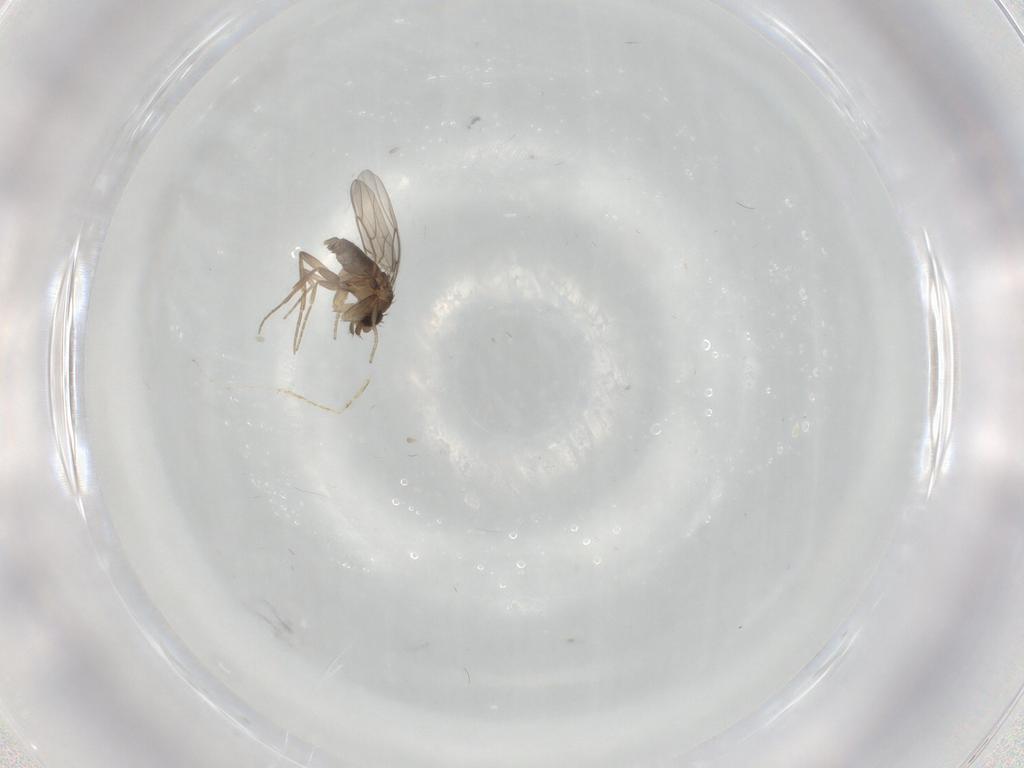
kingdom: Animalia
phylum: Arthropoda
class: Insecta
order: Diptera
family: Phoridae
